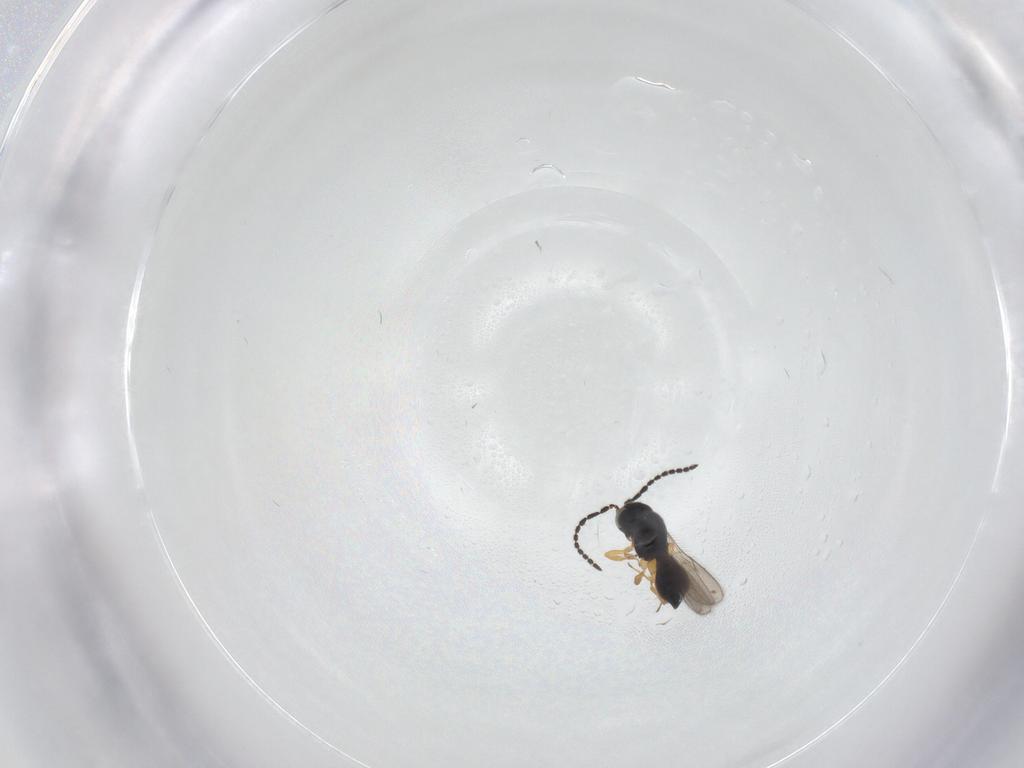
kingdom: Animalia
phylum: Arthropoda
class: Insecta
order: Hymenoptera
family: Scelionidae
